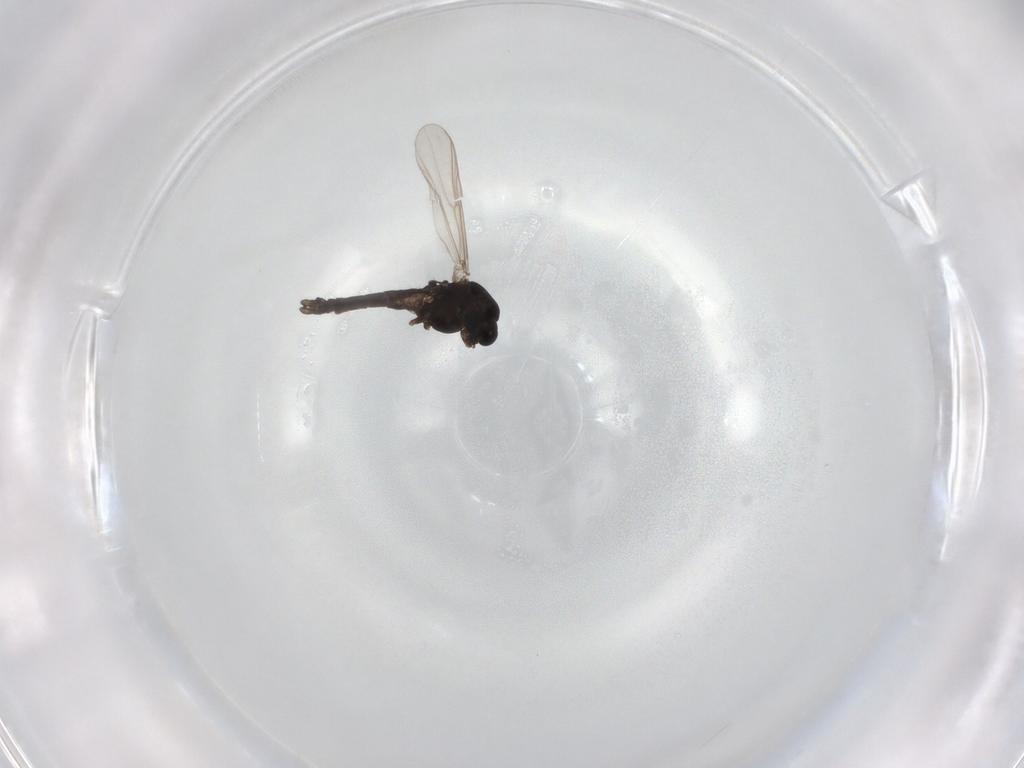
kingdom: Animalia
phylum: Arthropoda
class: Insecta
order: Diptera
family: Chironomidae
